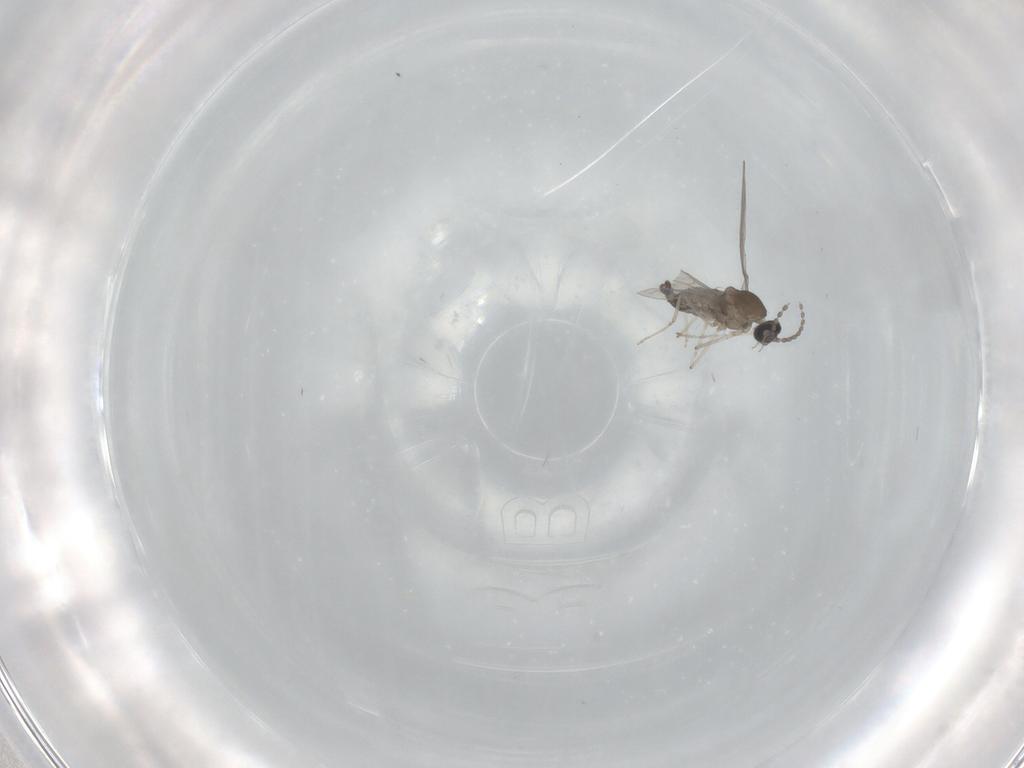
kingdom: Animalia
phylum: Arthropoda
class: Insecta
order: Diptera
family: Cecidomyiidae
